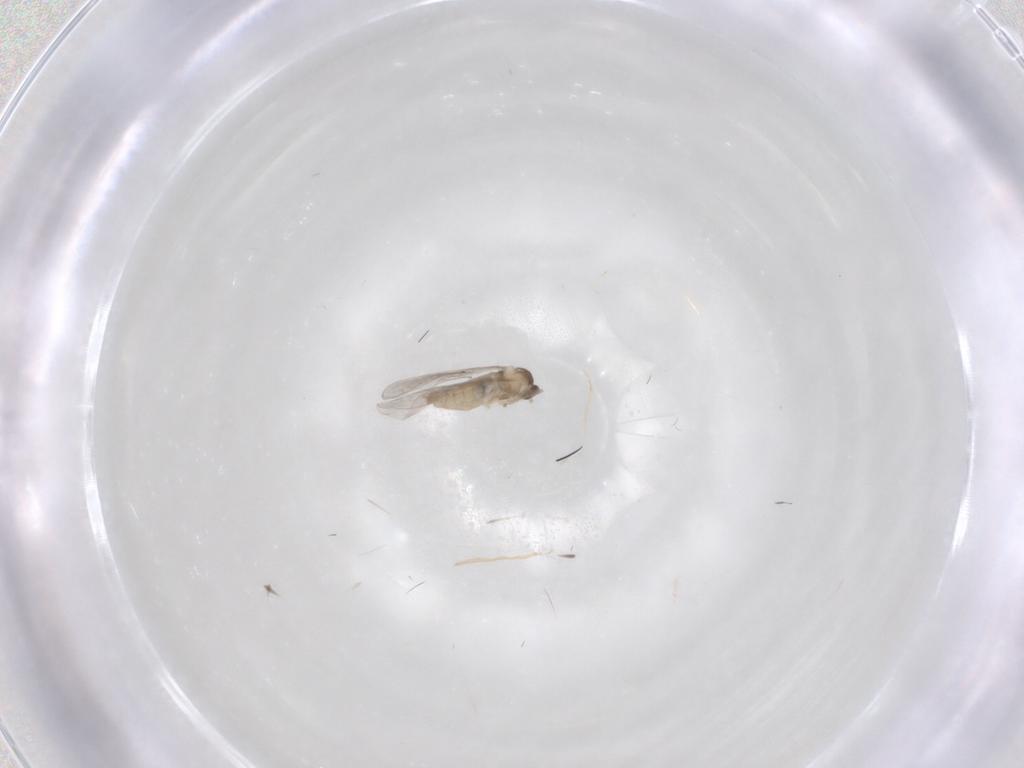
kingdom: Animalia
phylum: Arthropoda
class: Insecta
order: Diptera
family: Cecidomyiidae
